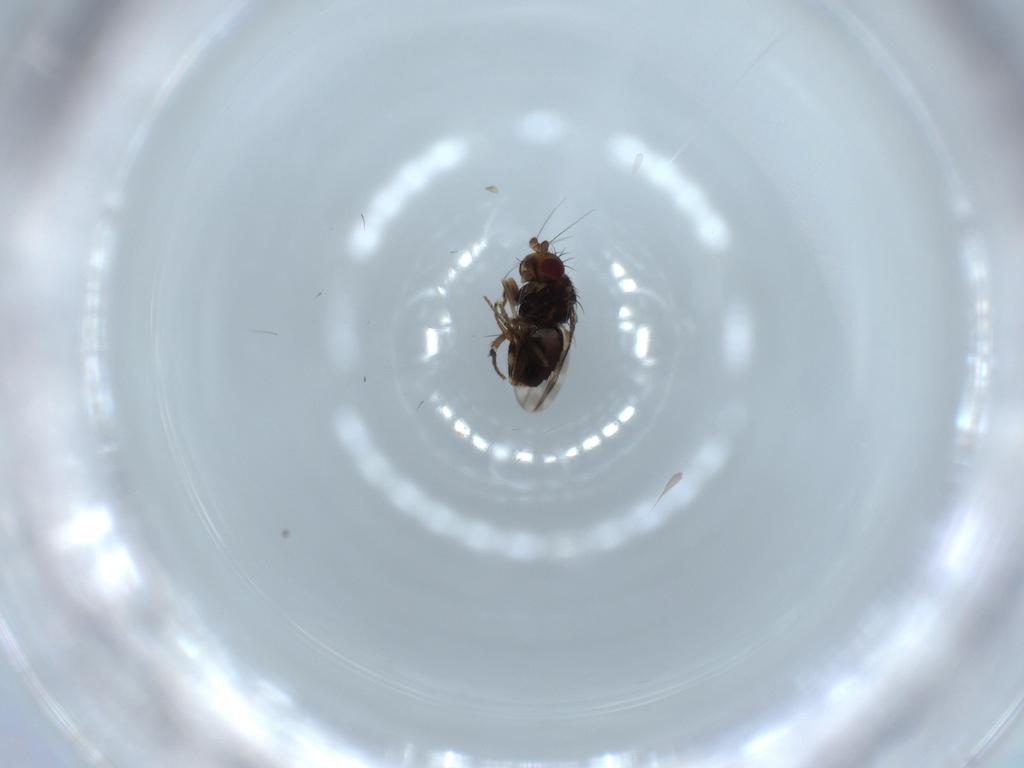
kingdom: Animalia
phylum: Arthropoda
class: Insecta
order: Diptera
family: Sphaeroceridae
